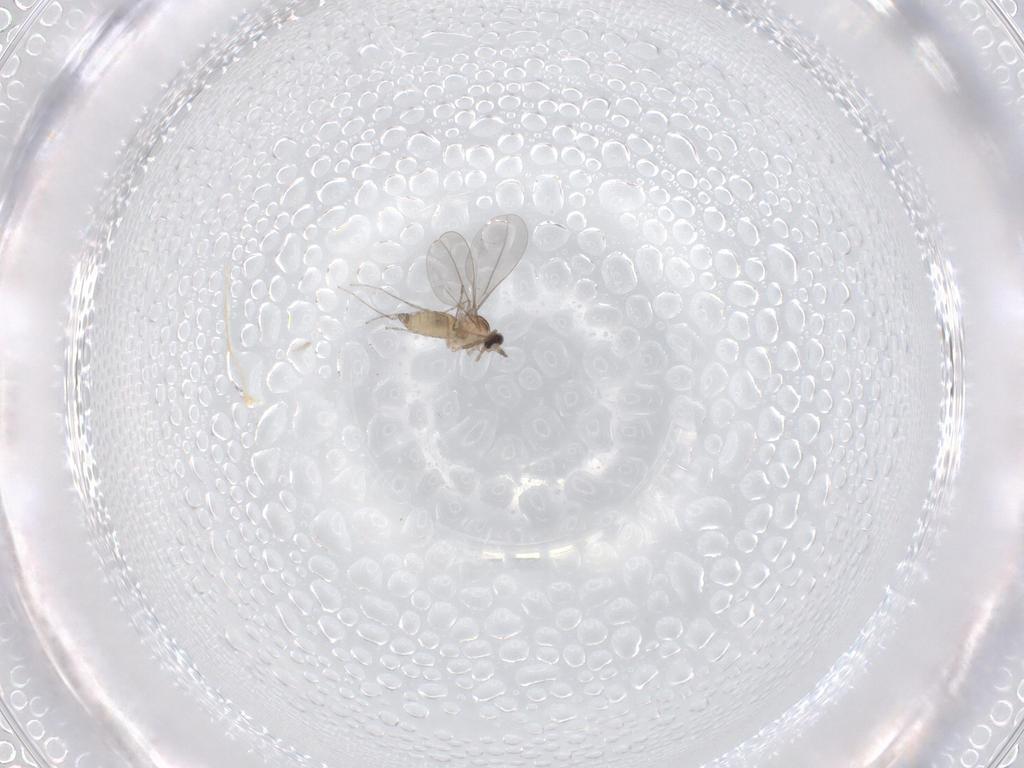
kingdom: Animalia
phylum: Arthropoda
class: Insecta
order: Diptera
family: Cecidomyiidae
